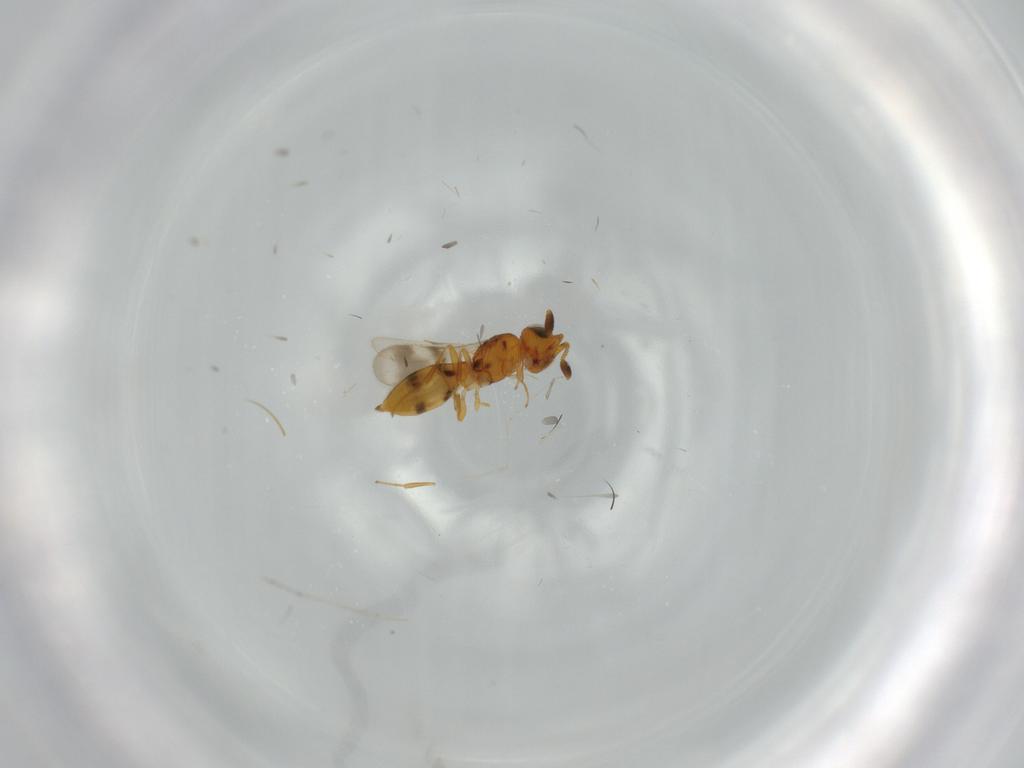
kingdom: Animalia
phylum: Arthropoda
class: Insecta
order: Hymenoptera
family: Scelionidae
